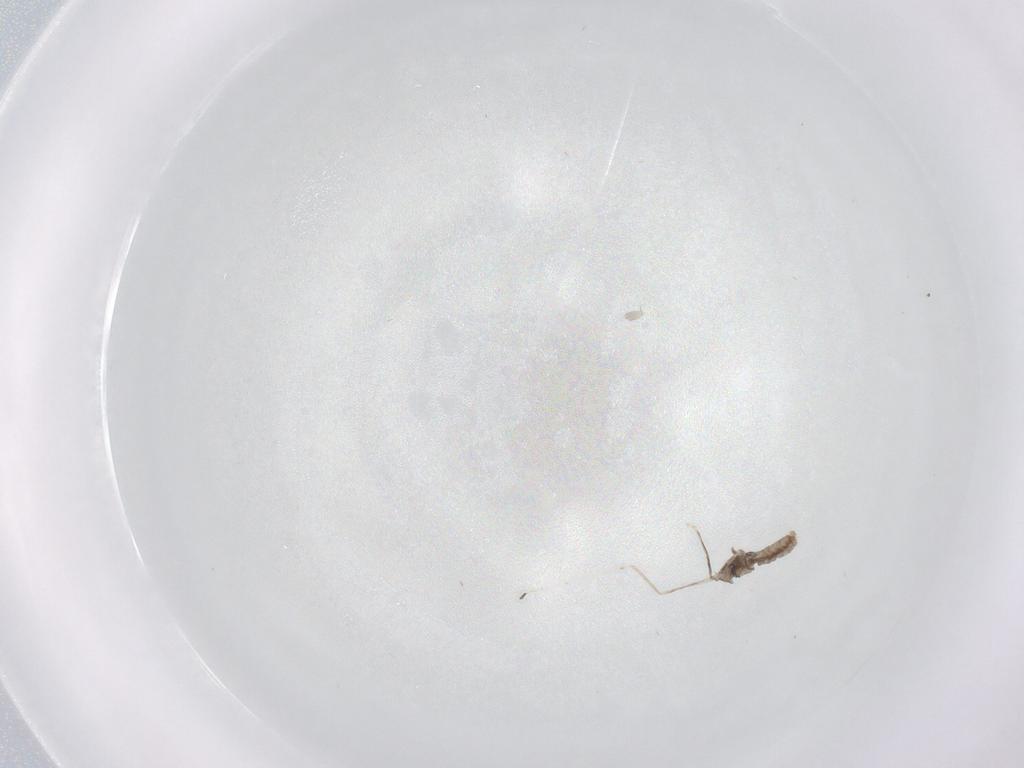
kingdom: Animalia
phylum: Arthropoda
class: Insecta
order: Diptera
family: Cecidomyiidae
